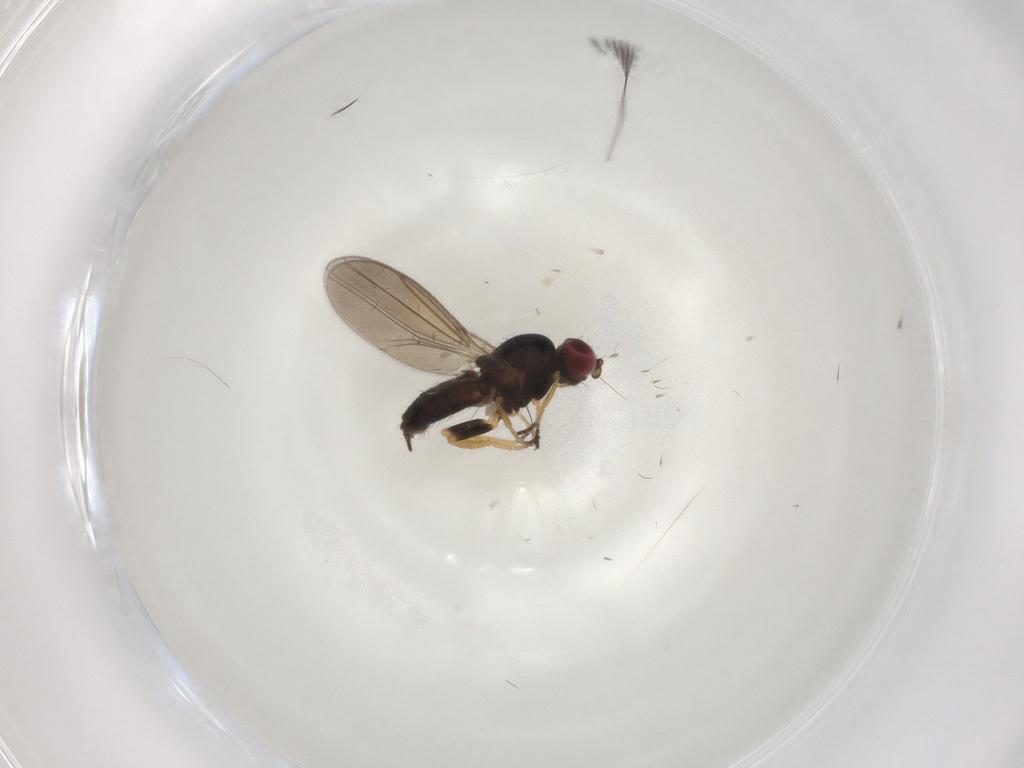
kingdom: Animalia
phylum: Arthropoda
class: Insecta
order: Diptera
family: Chloropidae
